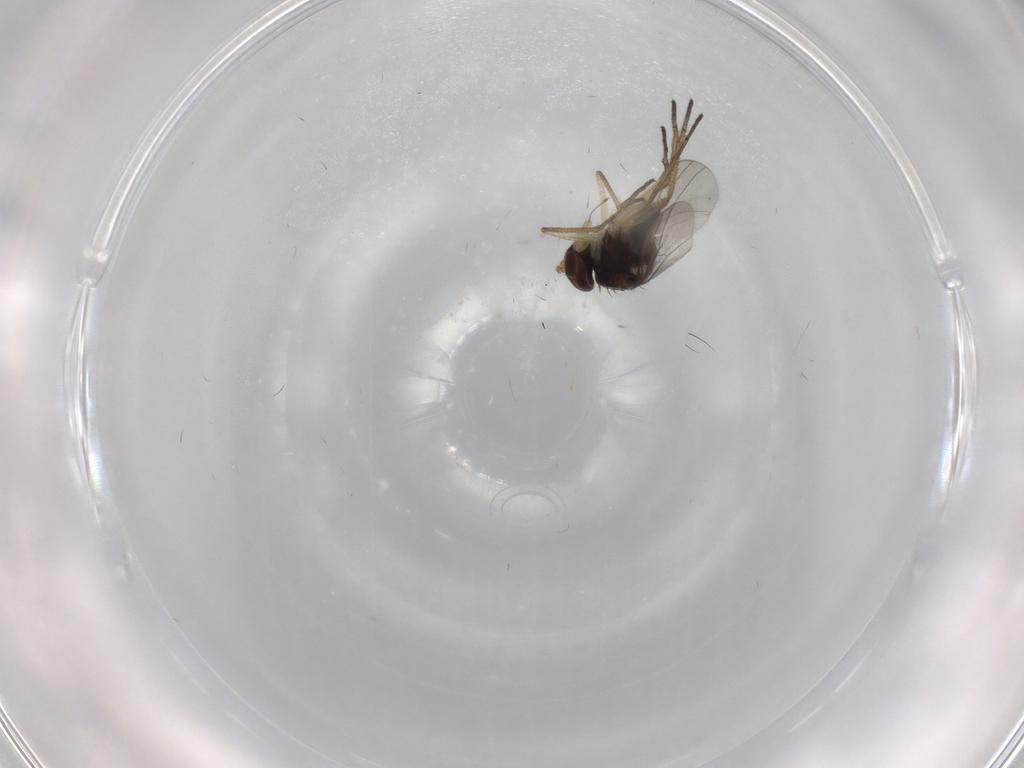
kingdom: Animalia
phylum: Arthropoda
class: Insecta
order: Diptera
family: Dolichopodidae
